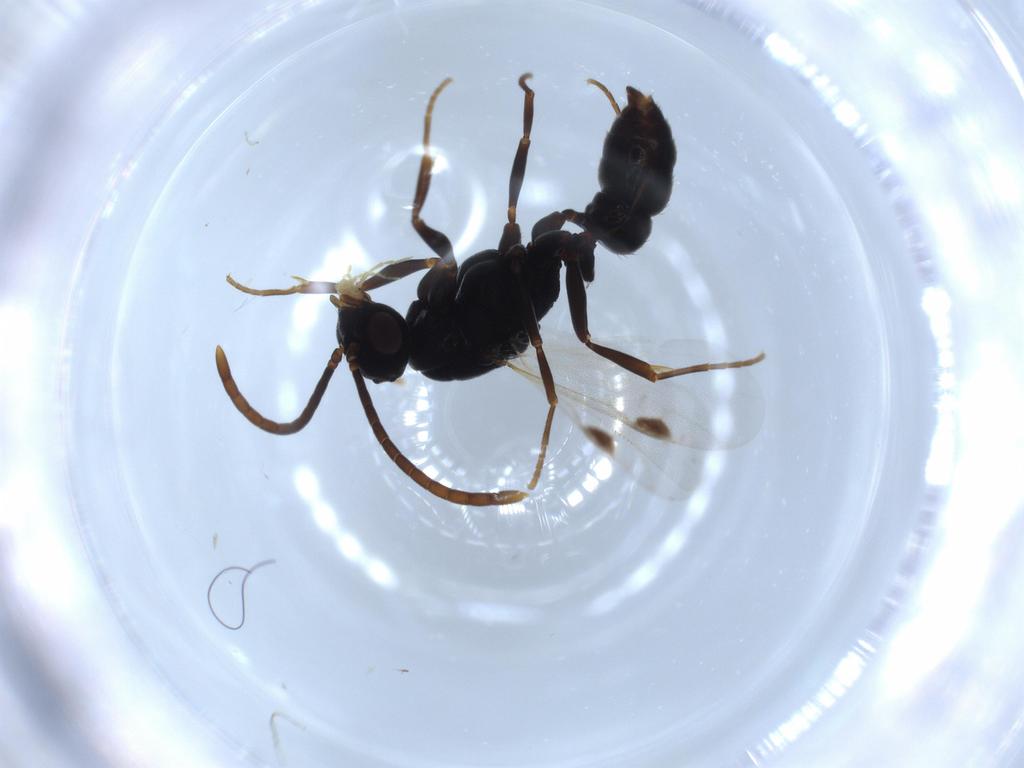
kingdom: Animalia
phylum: Arthropoda
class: Insecta
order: Hymenoptera
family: Formicidae
